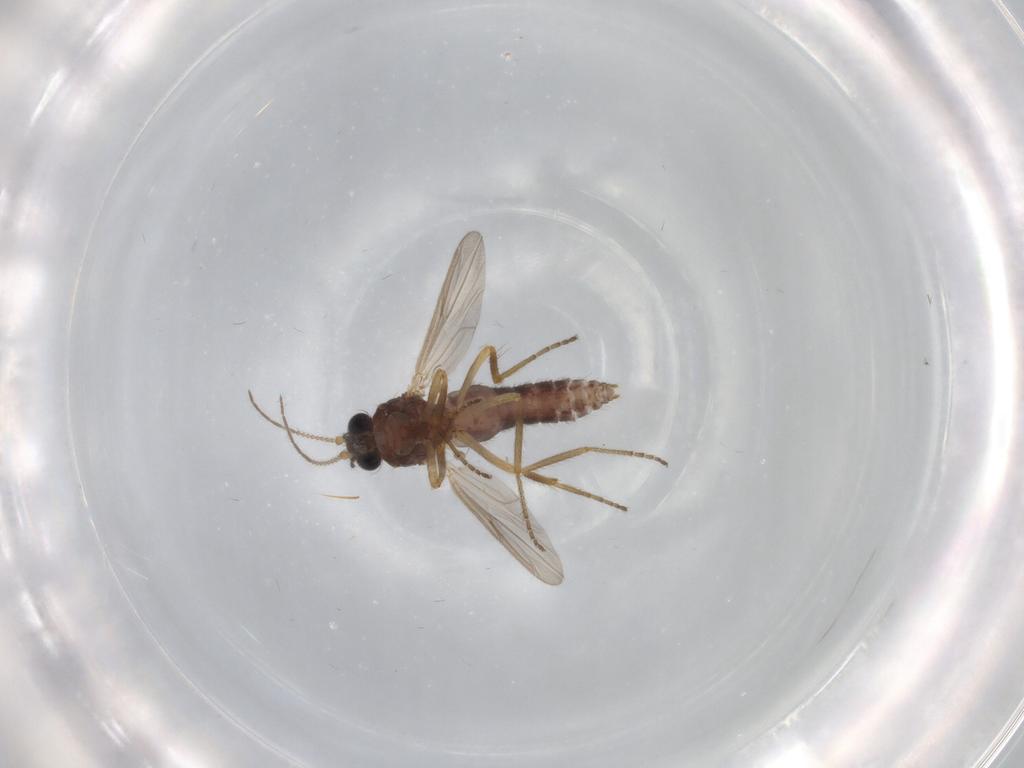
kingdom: Animalia
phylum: Arthropoda
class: Insecta
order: Diptera
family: Ceratopogonidae
